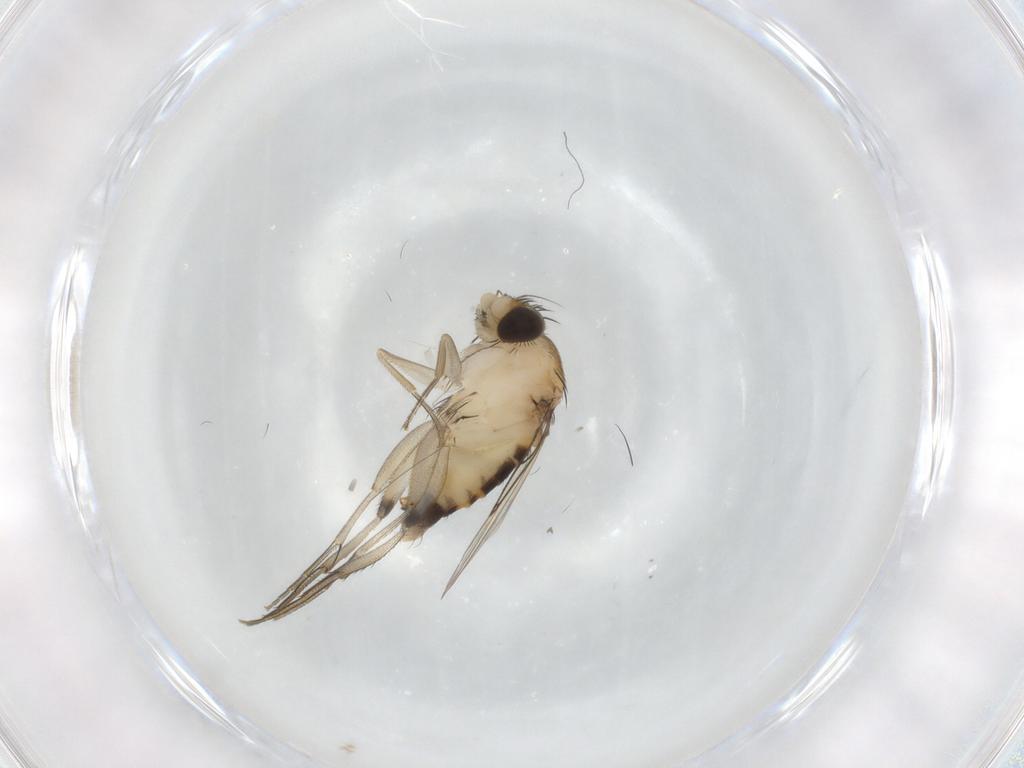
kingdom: Animalia
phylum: Arthropoda
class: Insecta
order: Diptera
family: Phoridae
